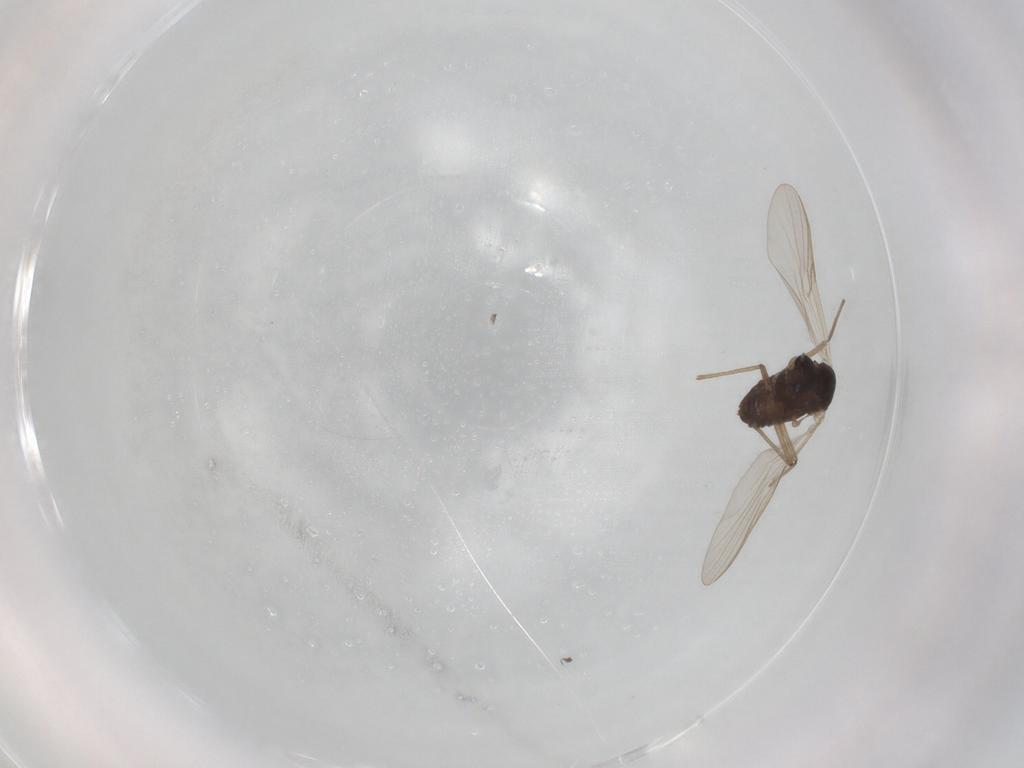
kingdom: Animalia
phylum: Arthropoda
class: Insecta
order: Diptera
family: Chironomidae
